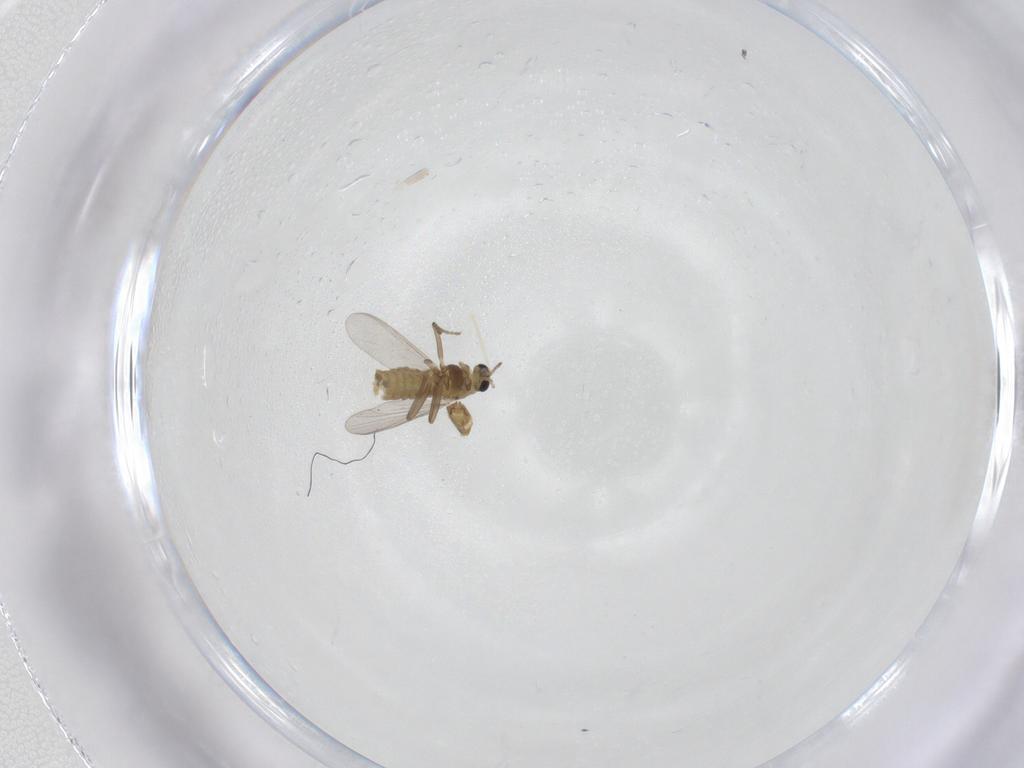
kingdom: Animalia
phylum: Arthropoda
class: Insecta
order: Diptera
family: Chironomidae
